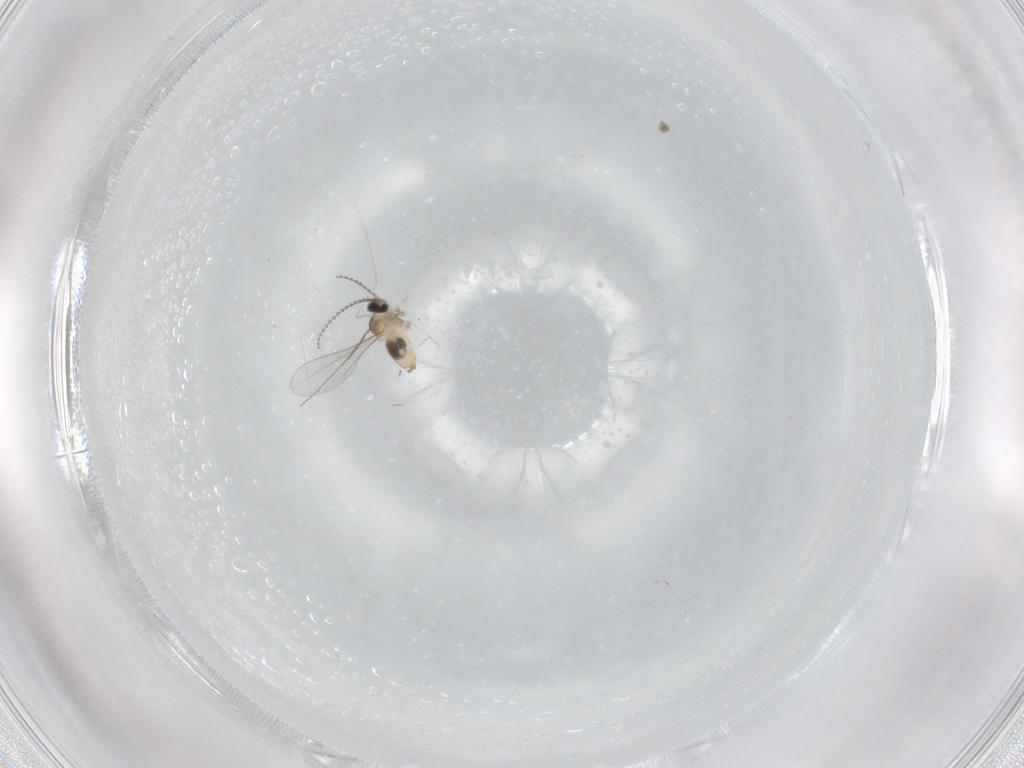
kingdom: Animalia
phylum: Arthropoda
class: Insecta
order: Diptera
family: Cecidomyiidae
